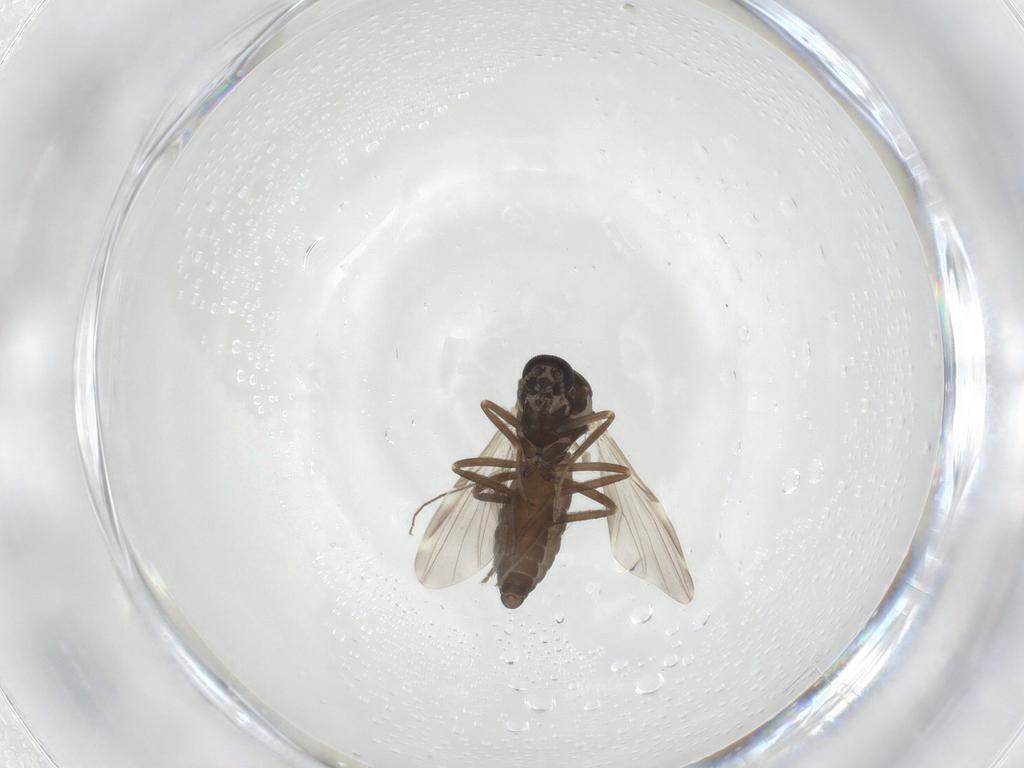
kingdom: Animalia
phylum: Arthropoda
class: Insecta
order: Diptera
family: Ceratopogonidae
